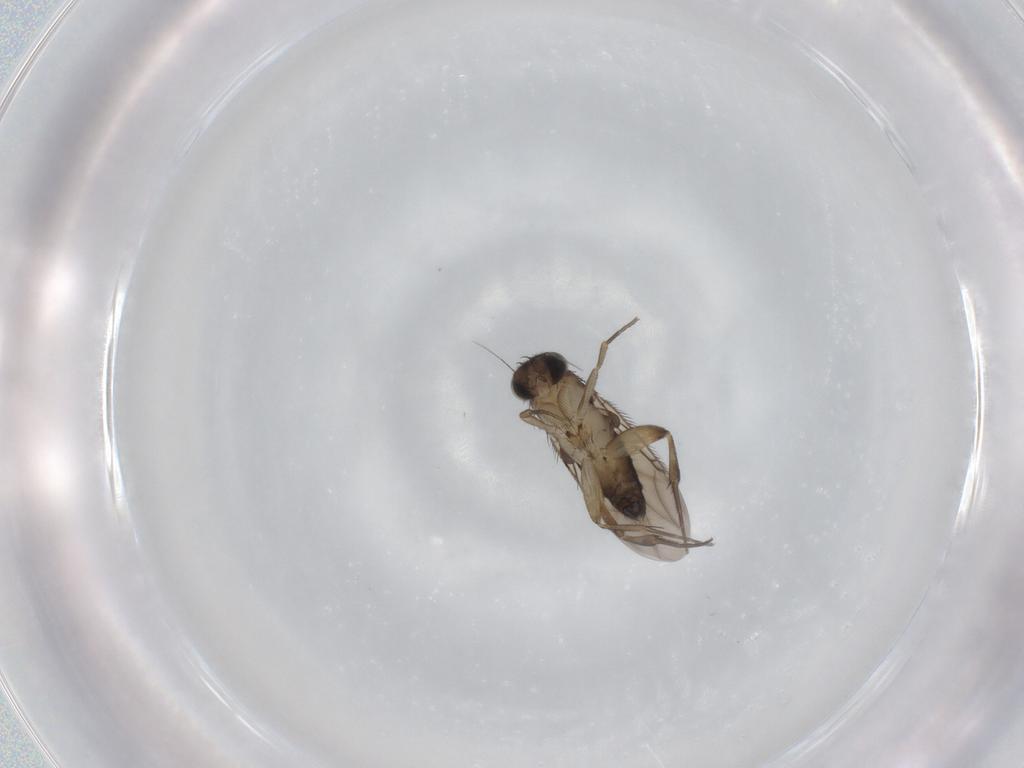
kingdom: Animalia
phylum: Arthropoda
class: Insecta
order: Diptera
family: Phoridae
